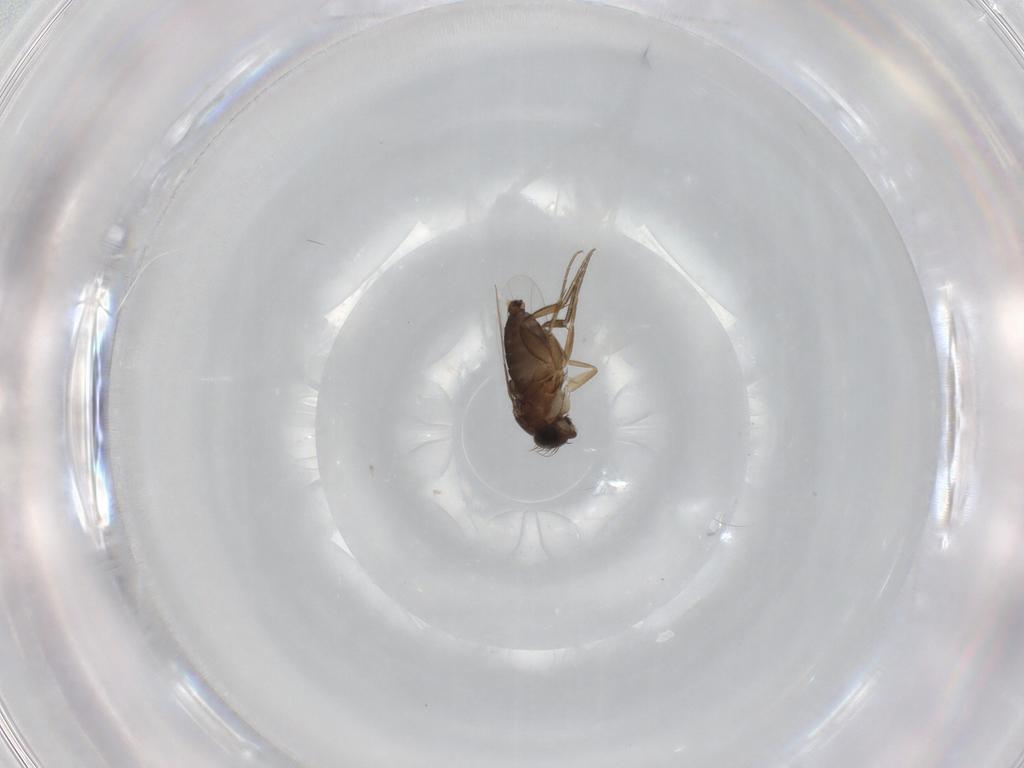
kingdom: Animalia
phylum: Arthropoda
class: Insecta
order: Diptera
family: Phoridae
